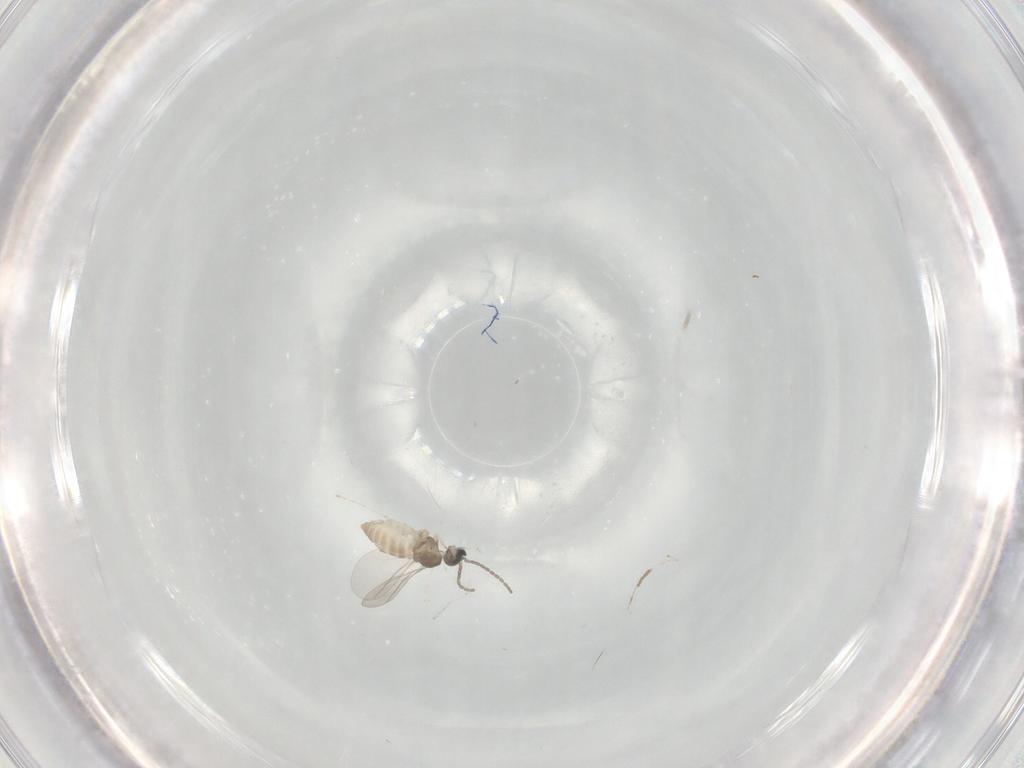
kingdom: Animalia
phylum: Arthropoda
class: Insecta
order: Diptera
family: Cecidomyiidae
